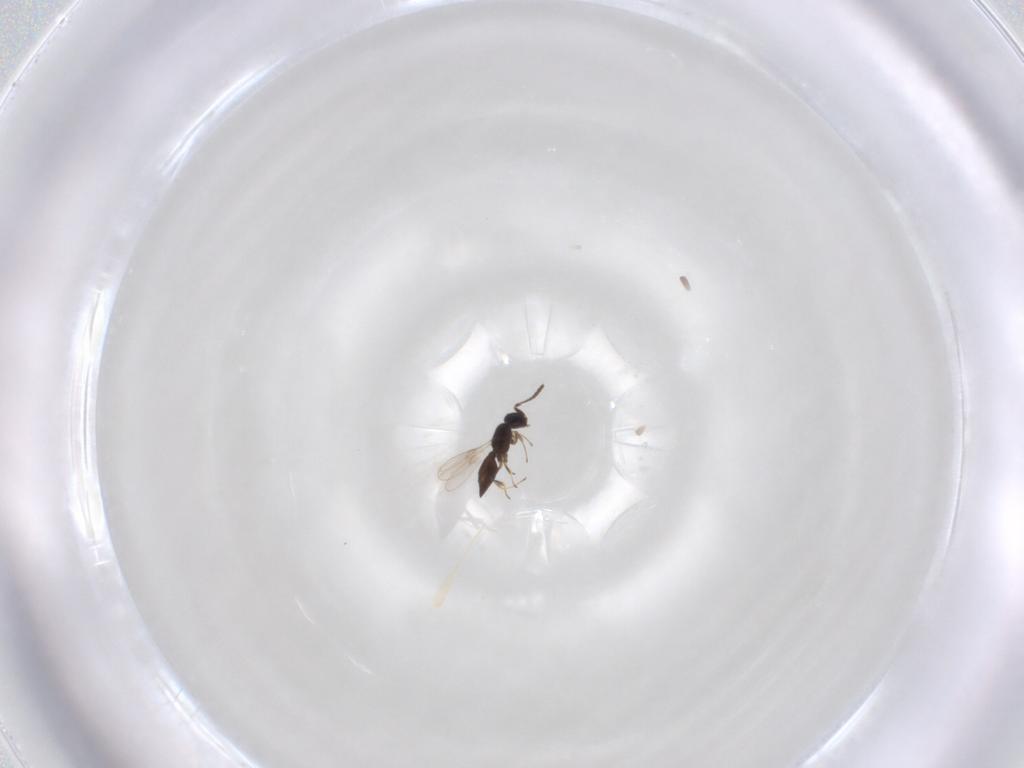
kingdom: Animalia
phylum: Arthropoda
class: Insecta
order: Hymenoptera
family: Scelionidae
